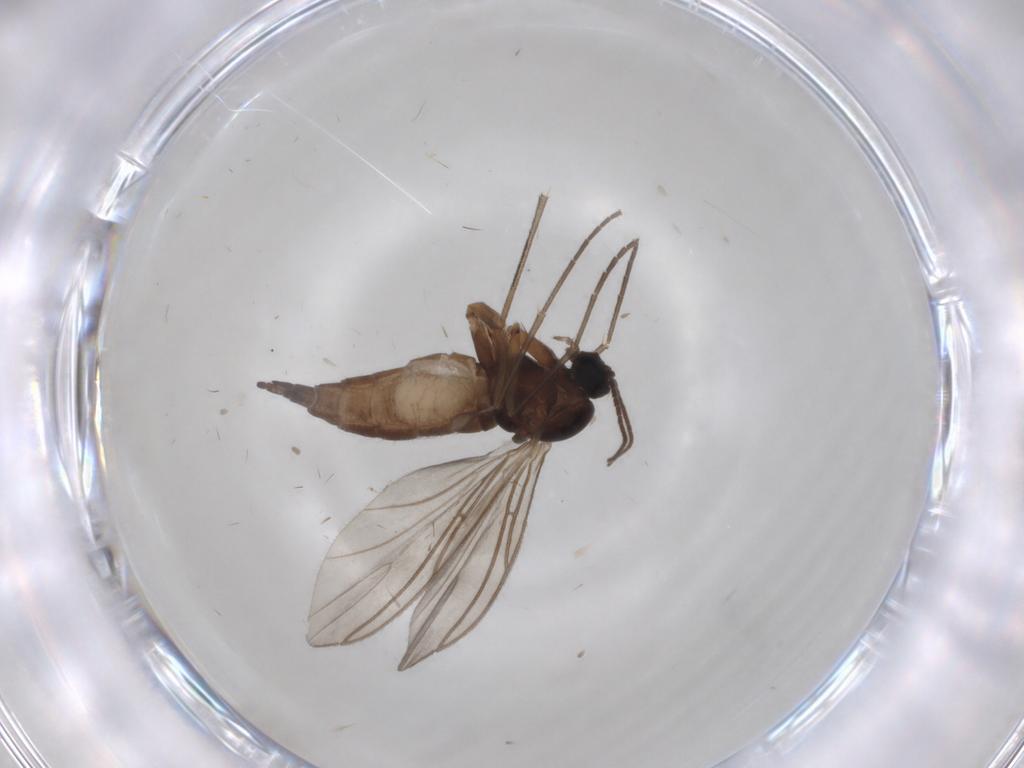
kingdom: Animalia
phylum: Arthropoda
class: Insecta
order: Diptera
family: Sciaridae
